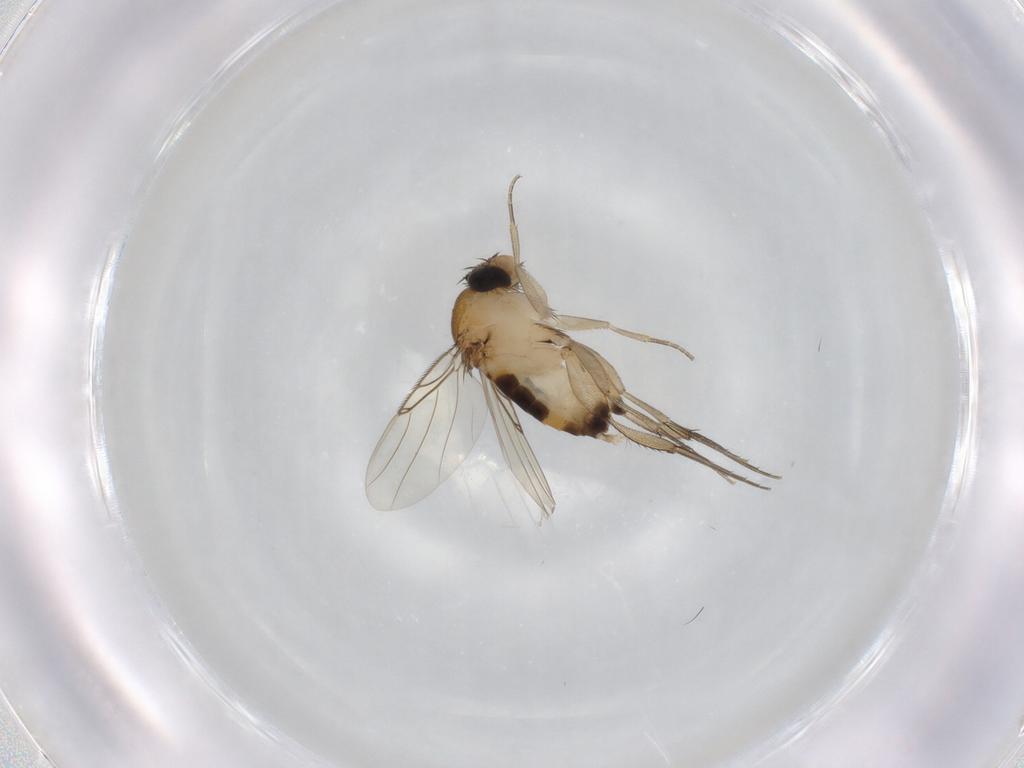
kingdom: Animalia
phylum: Arthropoda
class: Insecta
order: Diptera
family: Phoridae
